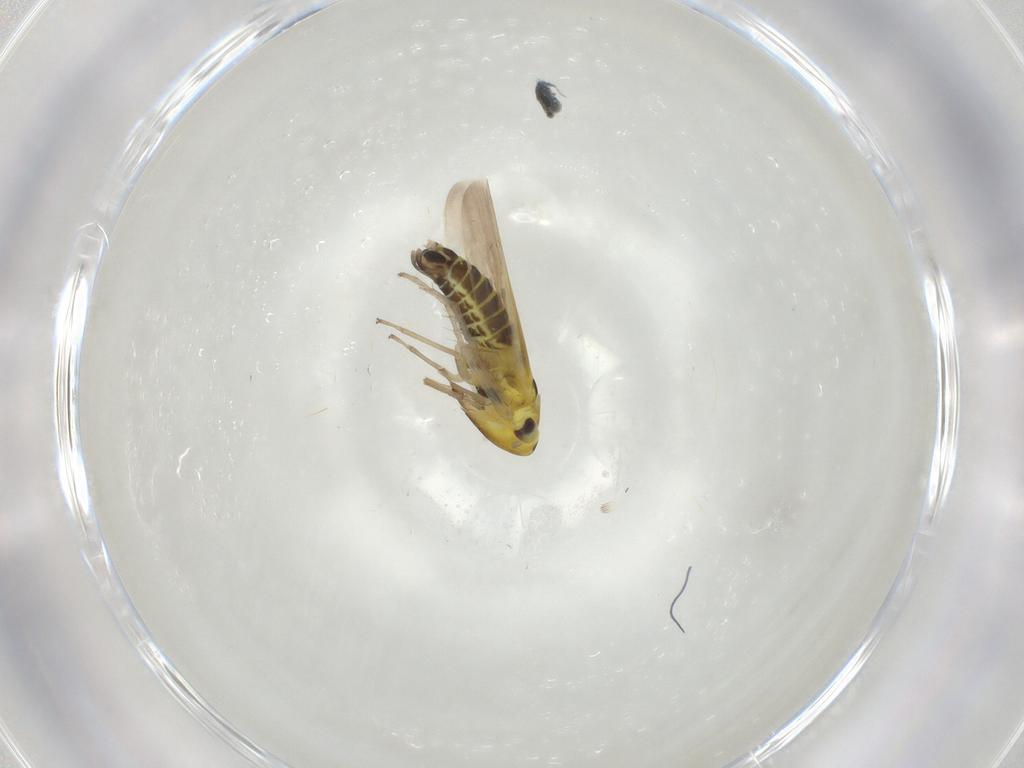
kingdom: Animalia
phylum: Arthropoda
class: Insecta
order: Hemiptera
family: Cicadellidae
